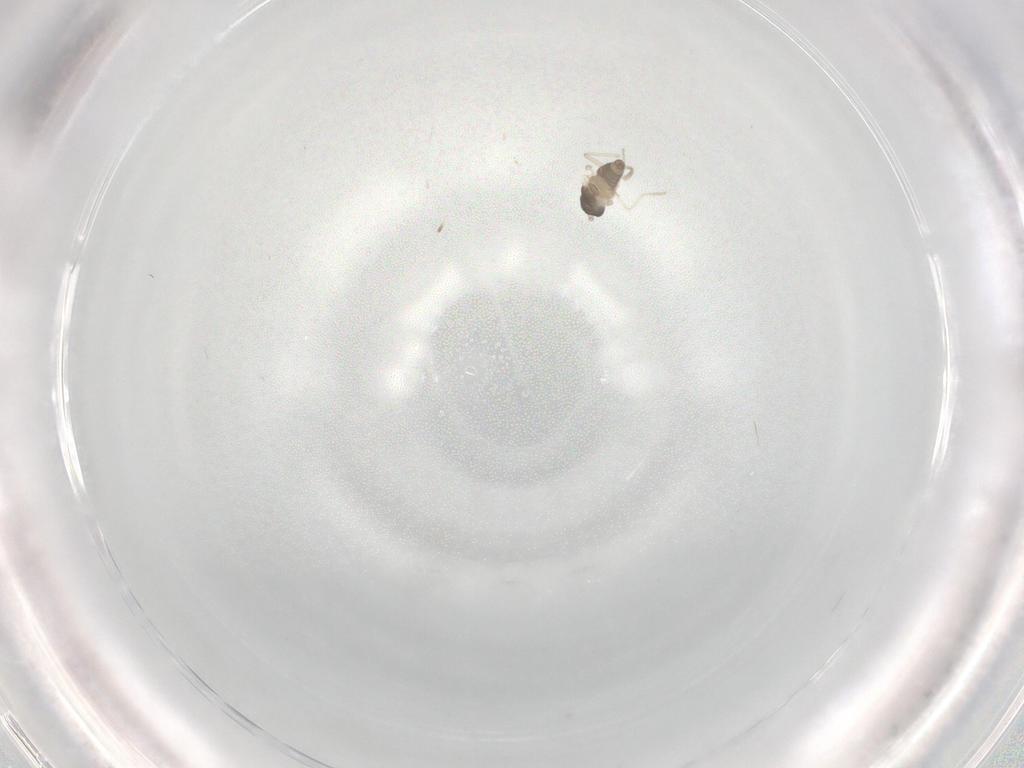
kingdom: Animalia
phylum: Arthropoda
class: Insecta
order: Diptera
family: Cecidomyiidae
